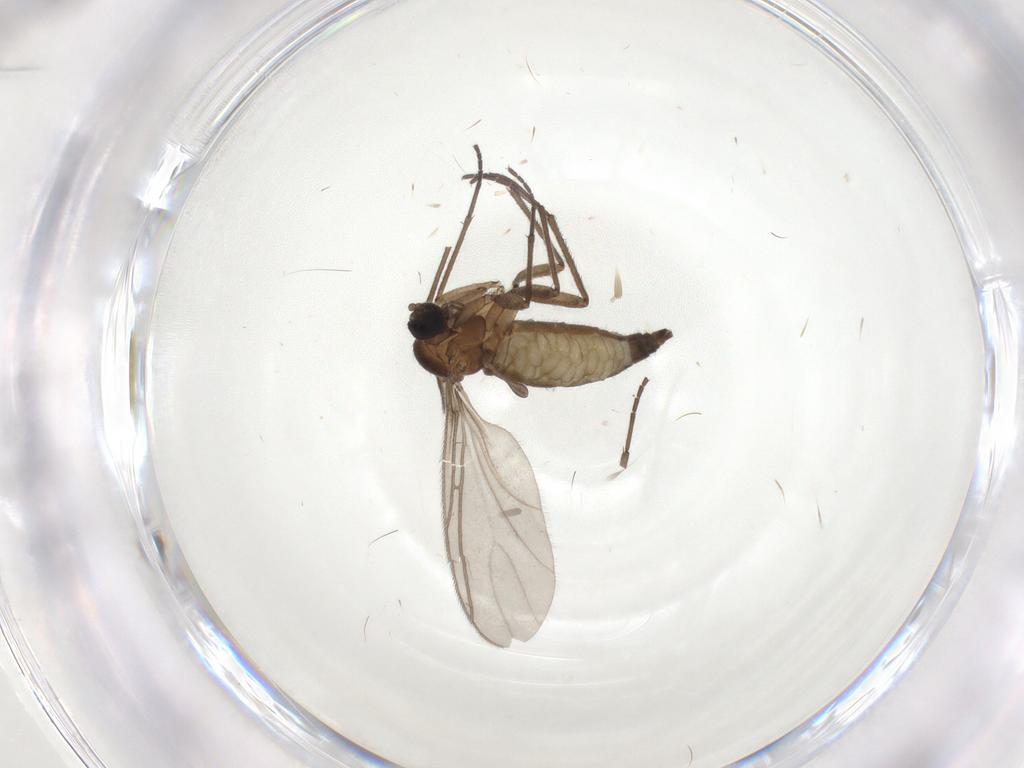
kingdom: Animalia
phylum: Arthropoda
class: Insecta
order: Diptera
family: Sciaridae
